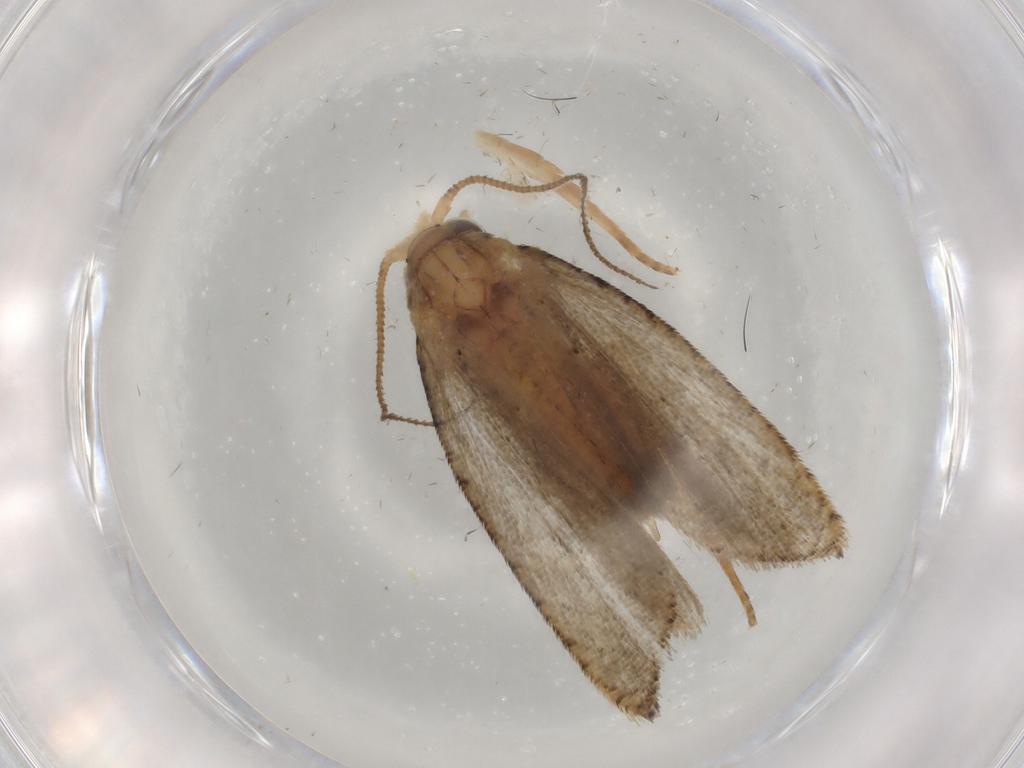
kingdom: Animalia
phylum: Arthropoda
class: Insecta
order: Lepidoptera
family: Tortricidae
